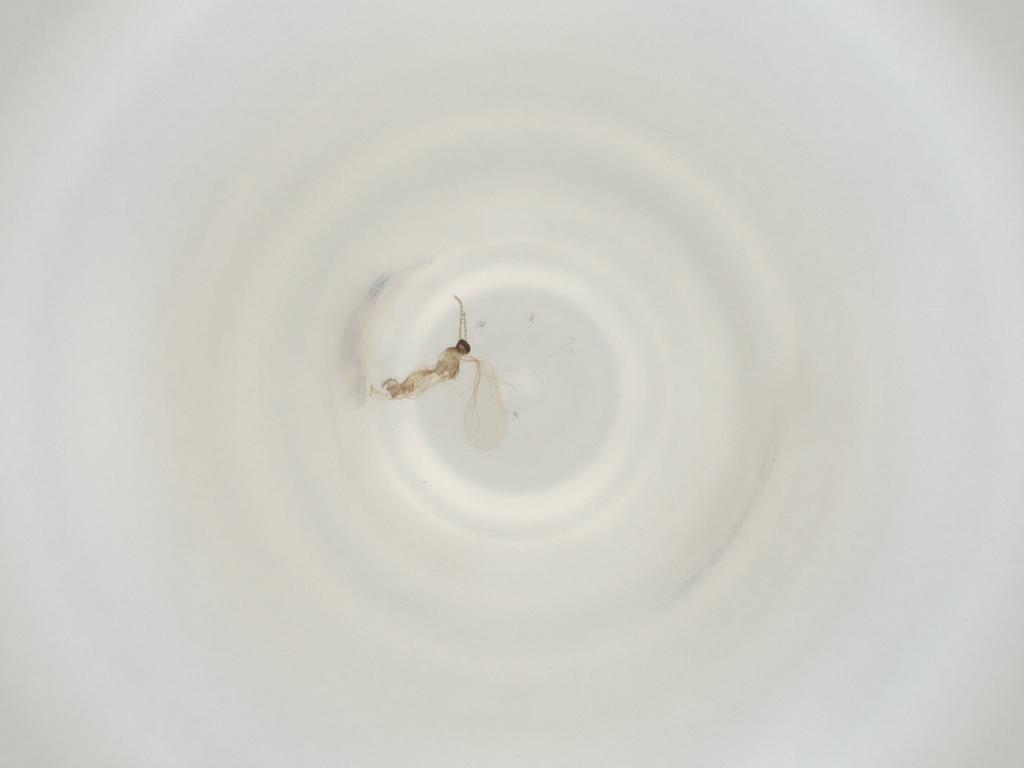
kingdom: Animalia
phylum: Arthropoda
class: Insecta
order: Diptera
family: Cecidomyiidae
